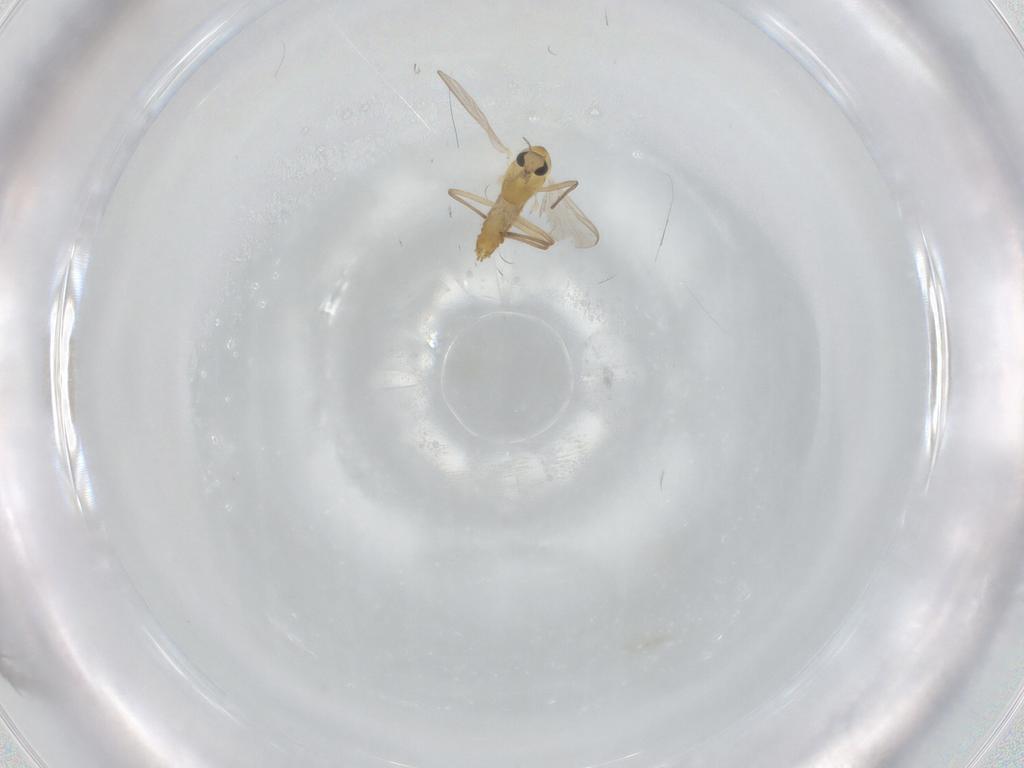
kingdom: Animalia
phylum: Arthropoda
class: Insecta
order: Diptera
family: Chironomidae
